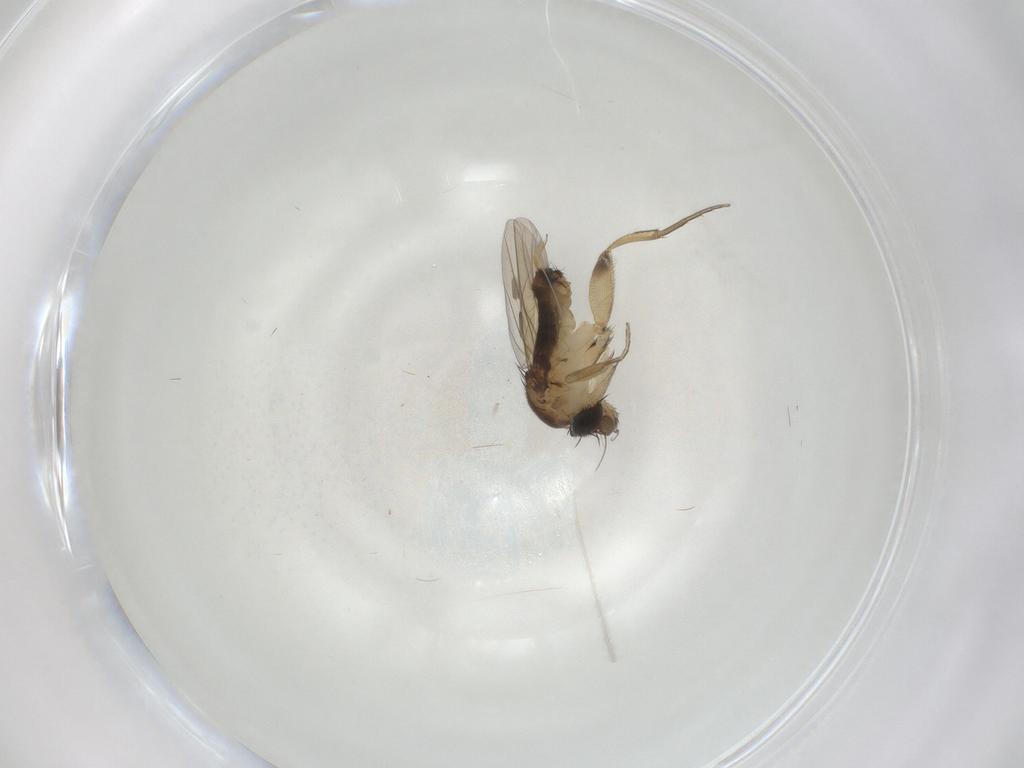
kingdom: Animalia
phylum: Arthropoda
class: Insecta
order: Diptera
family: Phoridae
